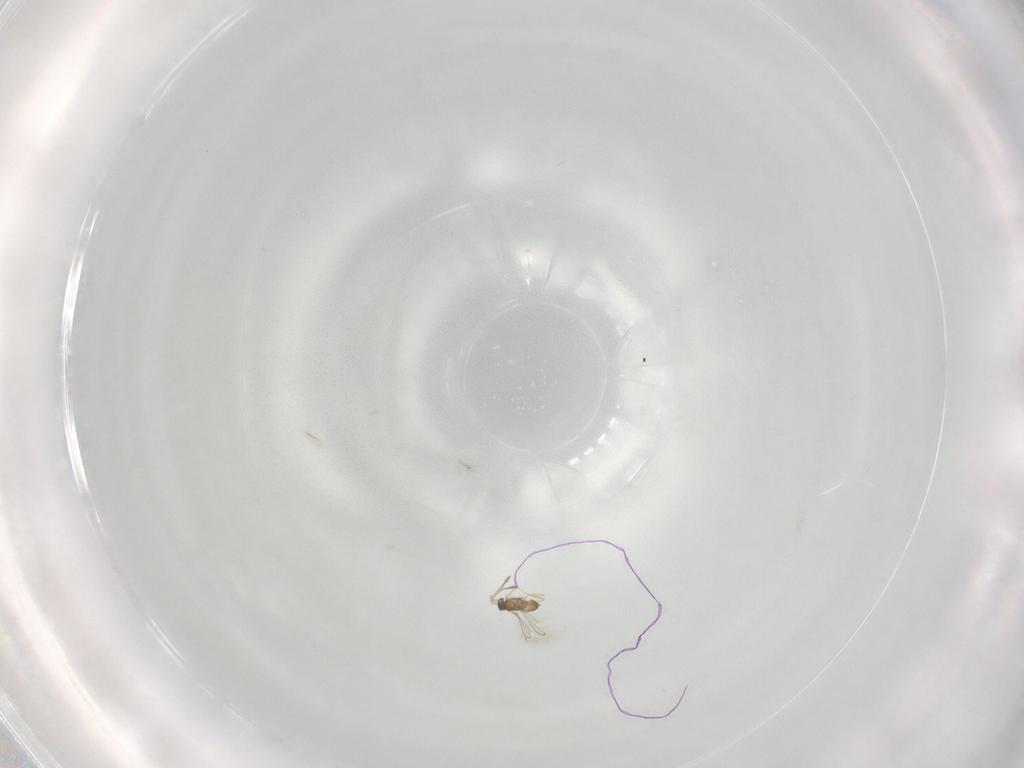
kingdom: Animalia
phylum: Arthropoda
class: Insecta
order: Hymenoptera
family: Mymaridae
